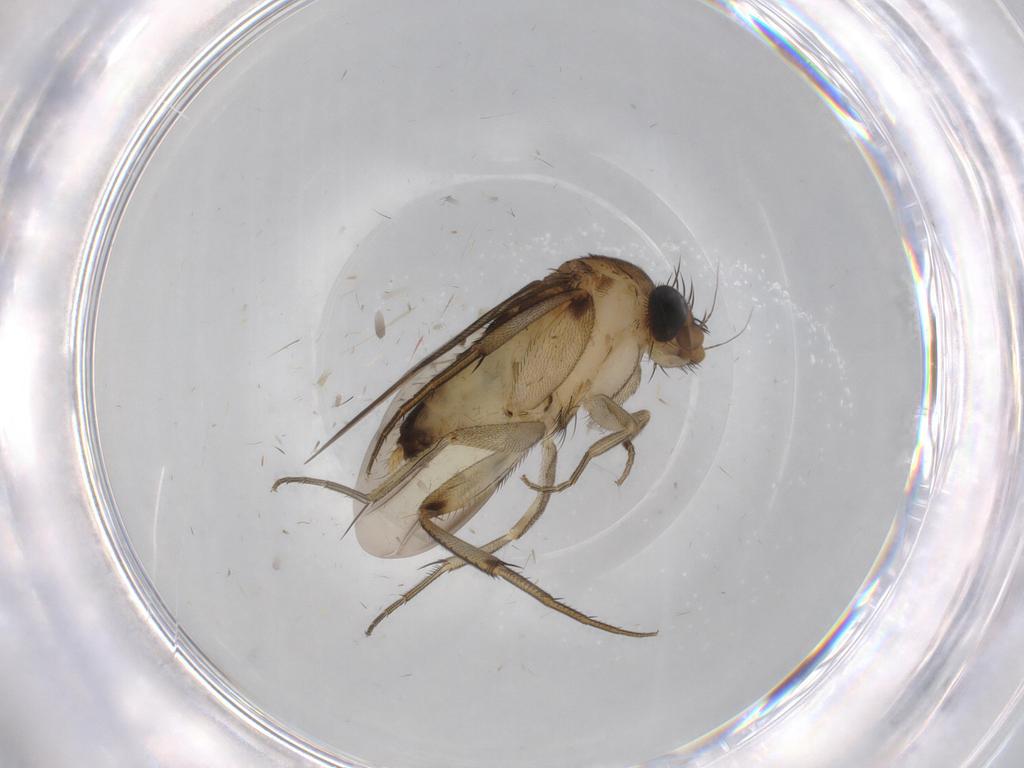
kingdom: Animalia
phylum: Arthropoda
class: Insecta
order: Diptera
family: Phoridae
